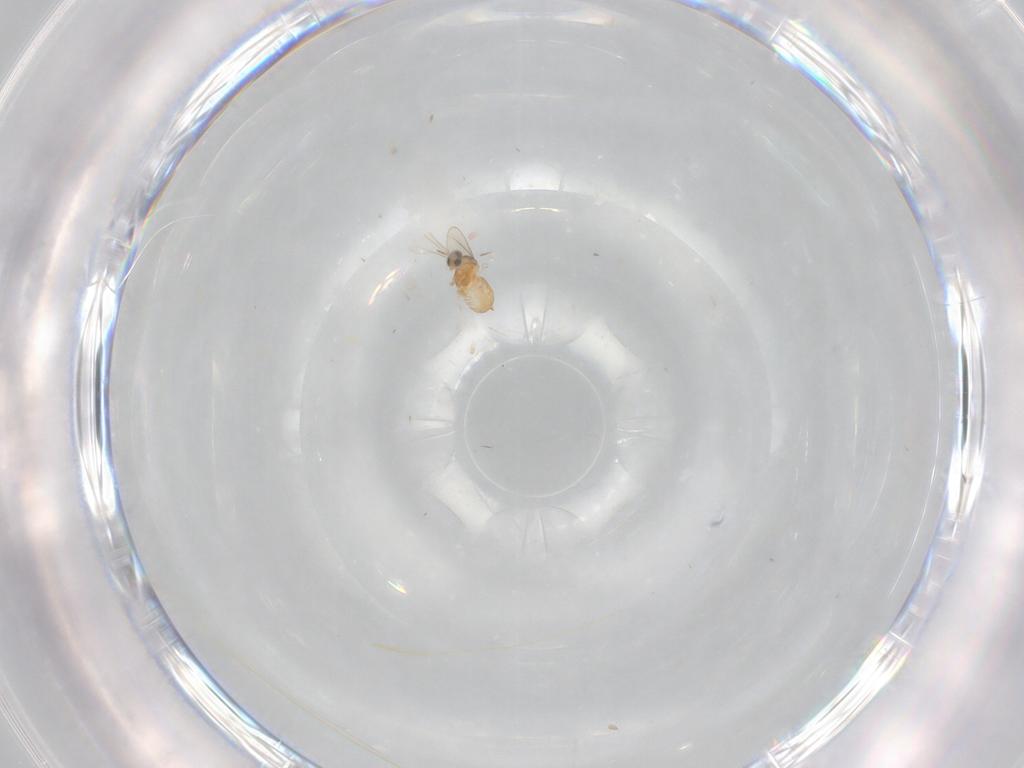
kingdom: Animalia
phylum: Arthropoda
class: Insecta
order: Diptera
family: Cecidomyiidae
